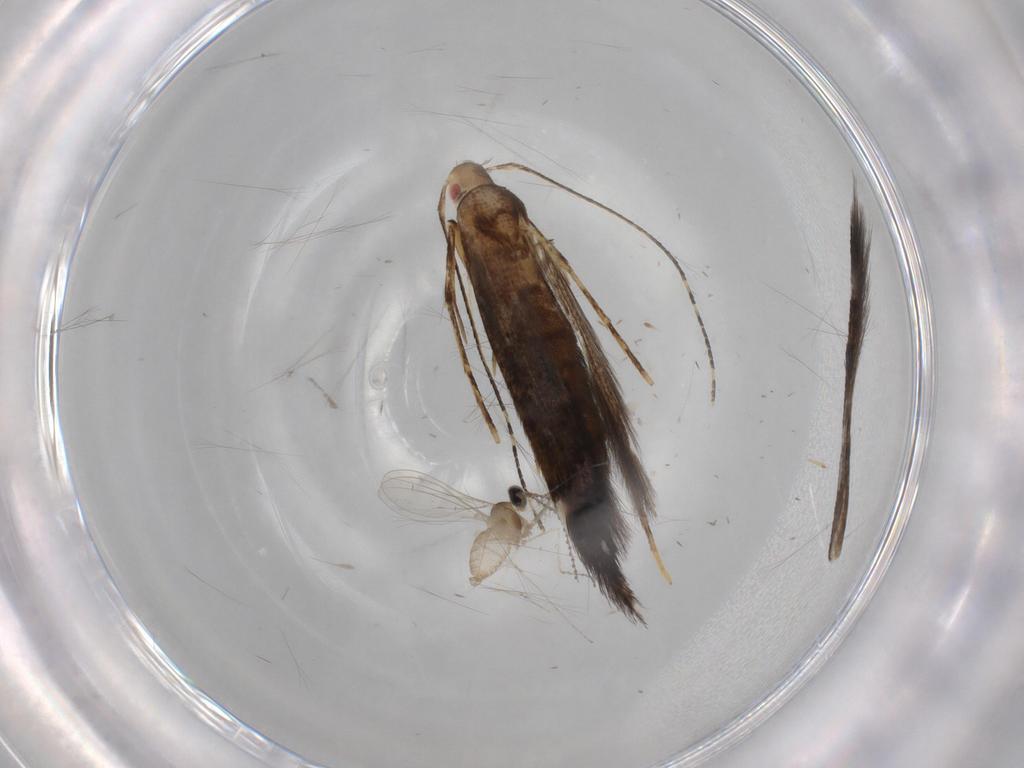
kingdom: Animalia
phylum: Arthropoda
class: Insecta
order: Diptera
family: Cecidomyiidae
